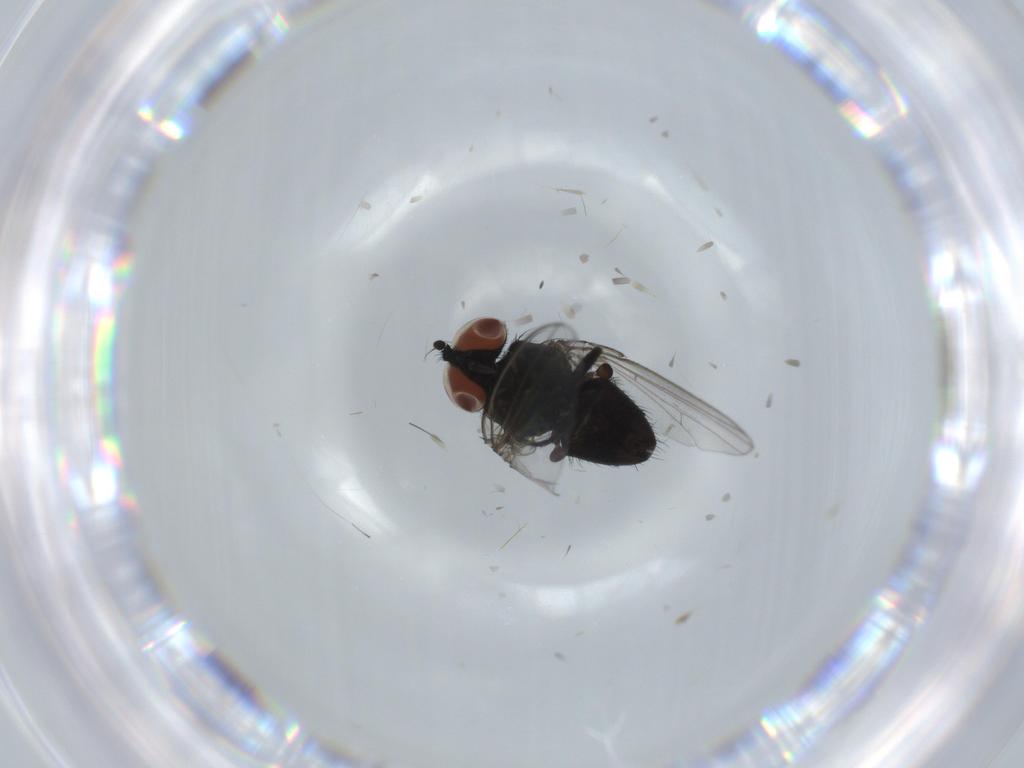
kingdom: Animalia
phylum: Arthropoda
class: Insecta
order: Diptera
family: Milichiidae
